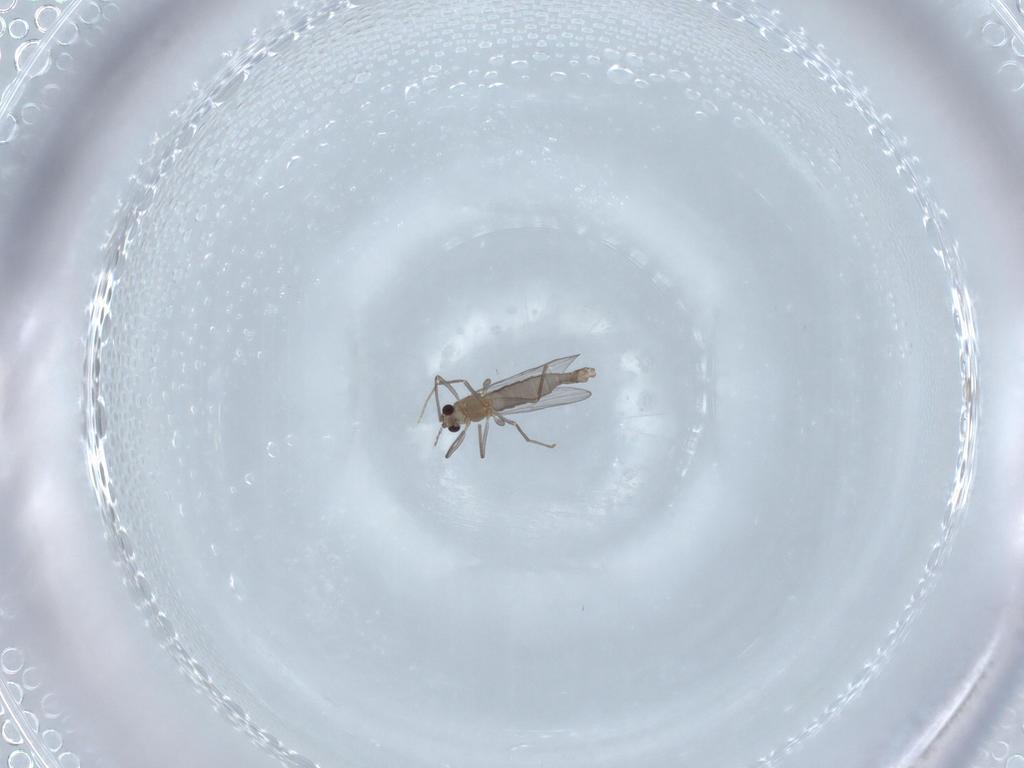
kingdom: Animalia
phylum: Arthropoda
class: Insecta
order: Diptera
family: Chironomidae
